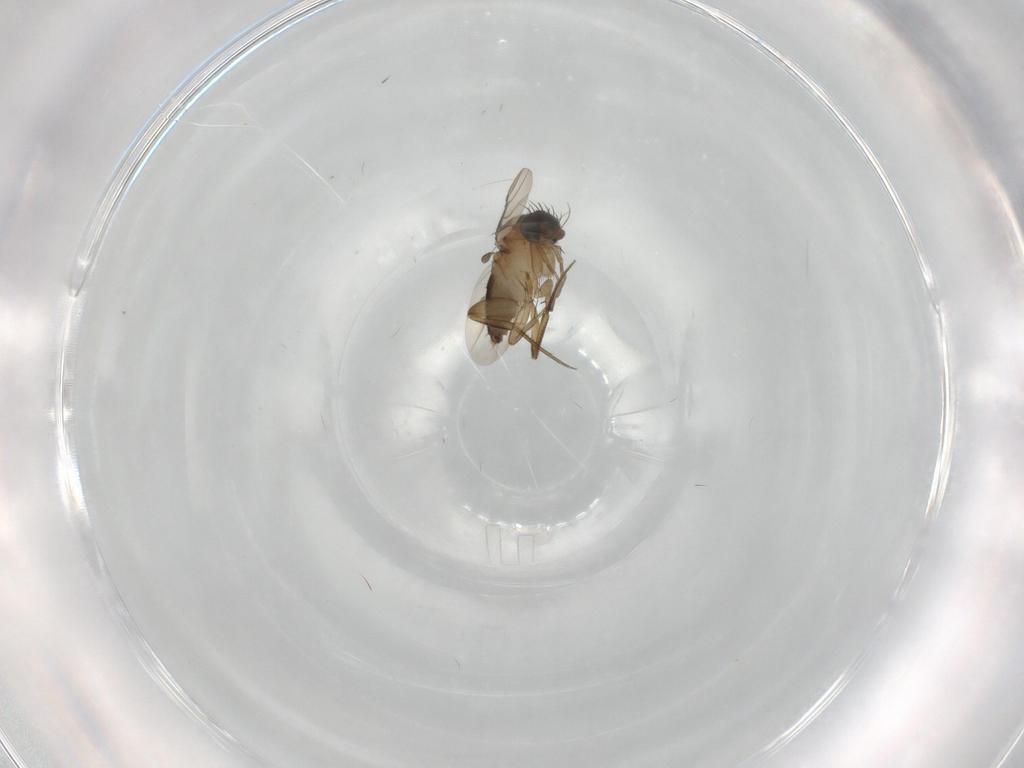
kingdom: Animalia
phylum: Arthropoda
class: Insecta
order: Diptera
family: Phoridae
